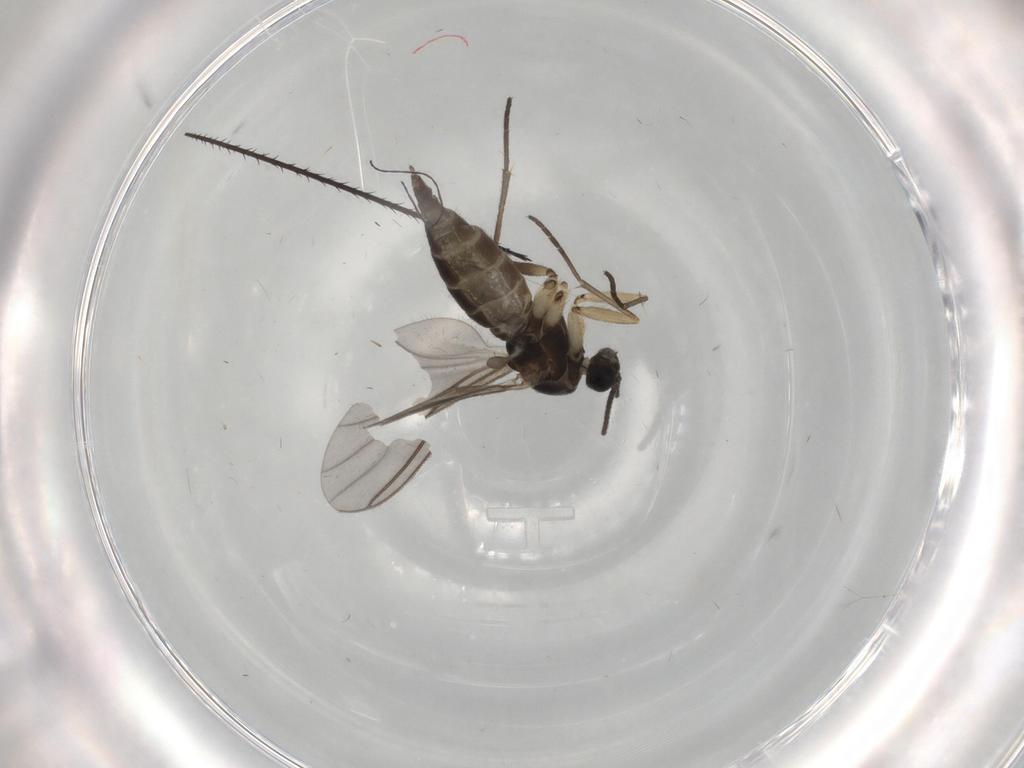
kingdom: Animalia
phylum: Arthropoda
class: Insecta
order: Diptera
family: Sciaridae
